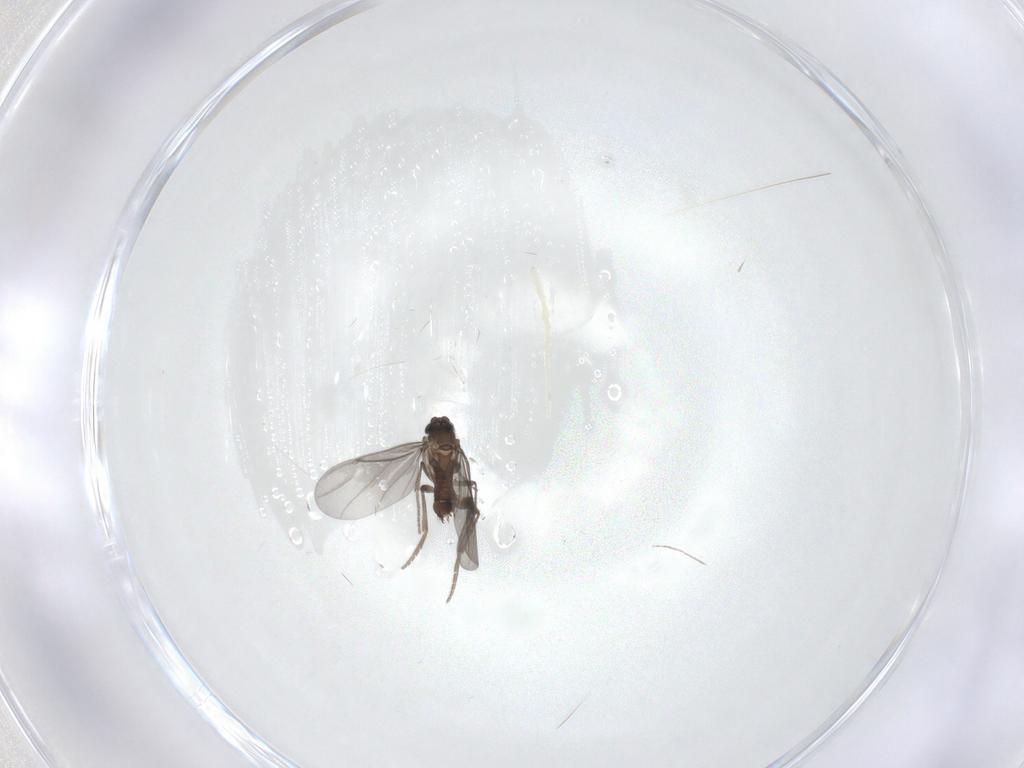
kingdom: Animalia
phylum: Arthropoda
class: Insecta
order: Diptera
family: Phoridae
